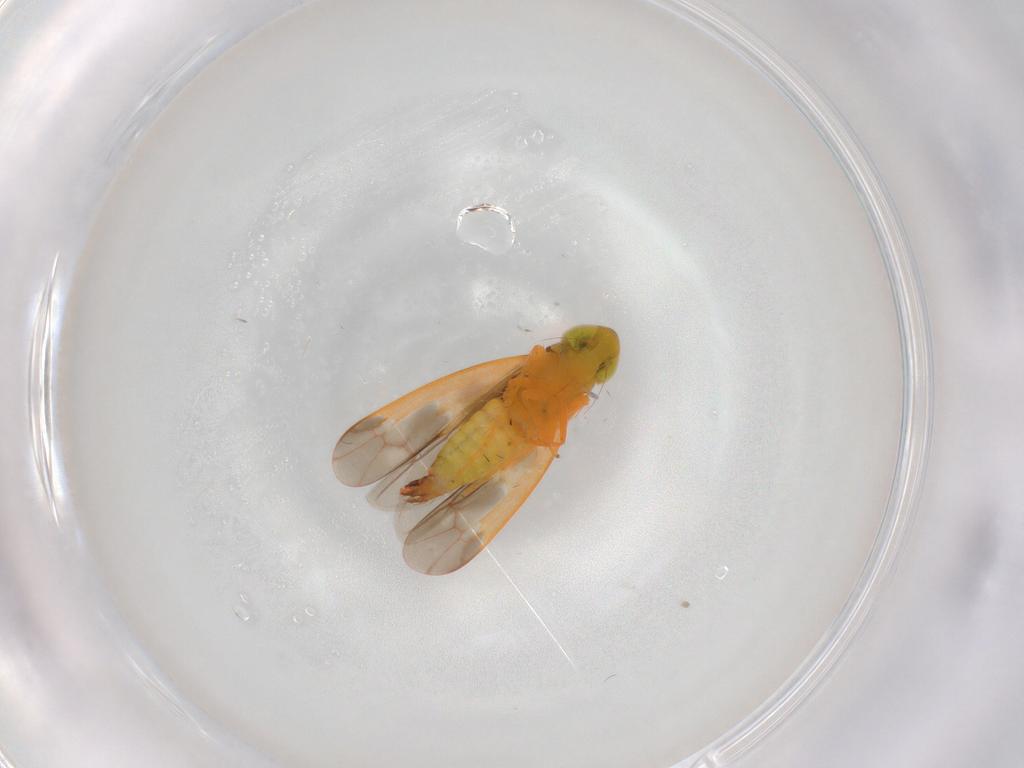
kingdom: Animalia
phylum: Arthropoda
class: Insecta
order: Hemiptera
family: Cicadellidae
